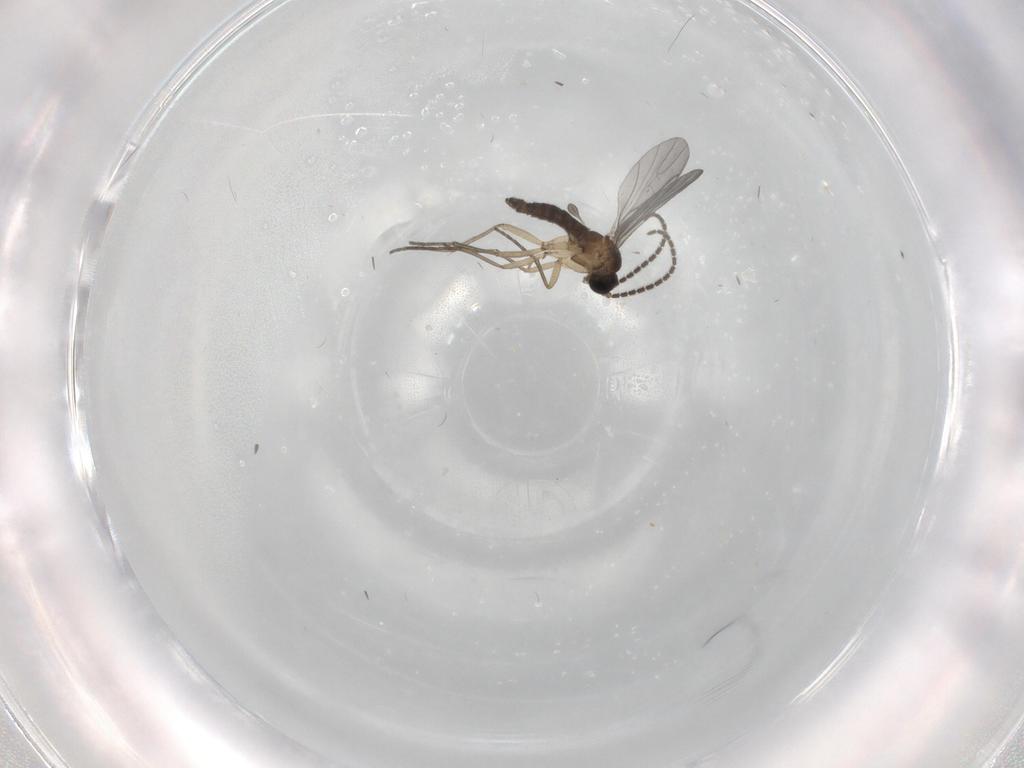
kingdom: Animalia
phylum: Arthropoda
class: Insecta
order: Diptera
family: Sciaridae
